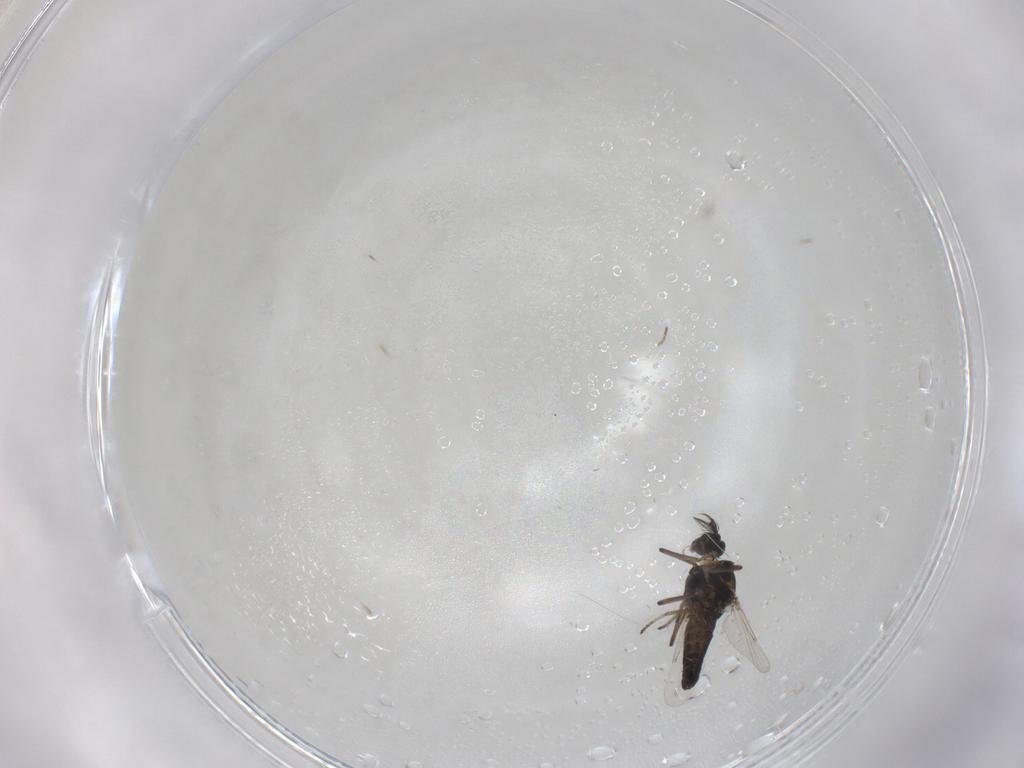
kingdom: Animalia
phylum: Arthropoda
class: Insecta
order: Diptera
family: Ceratopogonidae
